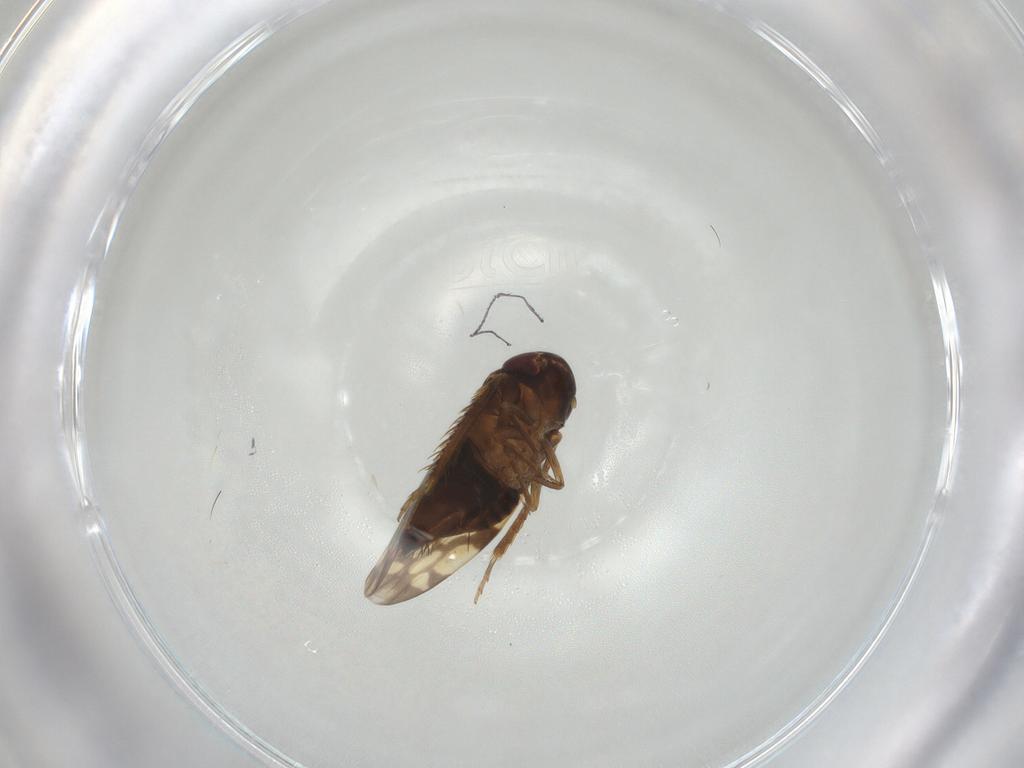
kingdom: Animalia
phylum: Arthropoda
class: Insecta
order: Hemiptera
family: Cicadellidae
